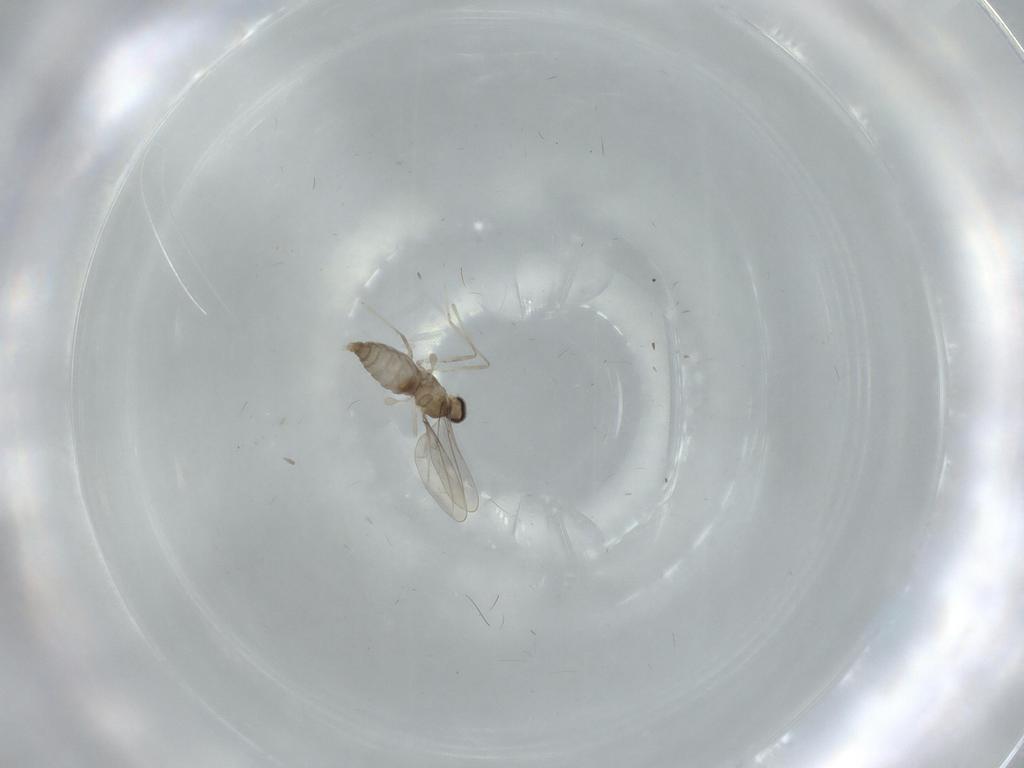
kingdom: Animalia
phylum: Arthropoda
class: Insecta
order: Diptera
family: Cecidomyiidae
